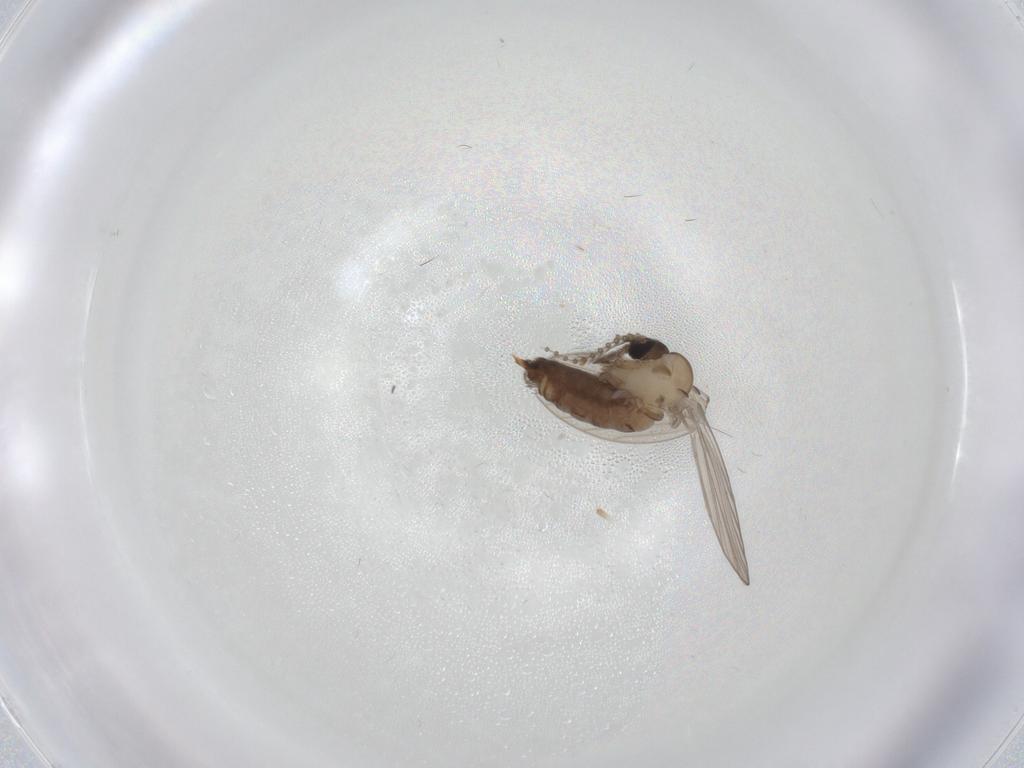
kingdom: Animalia
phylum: Arthropoda
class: Insecta
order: Diptera
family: Psychodidae
